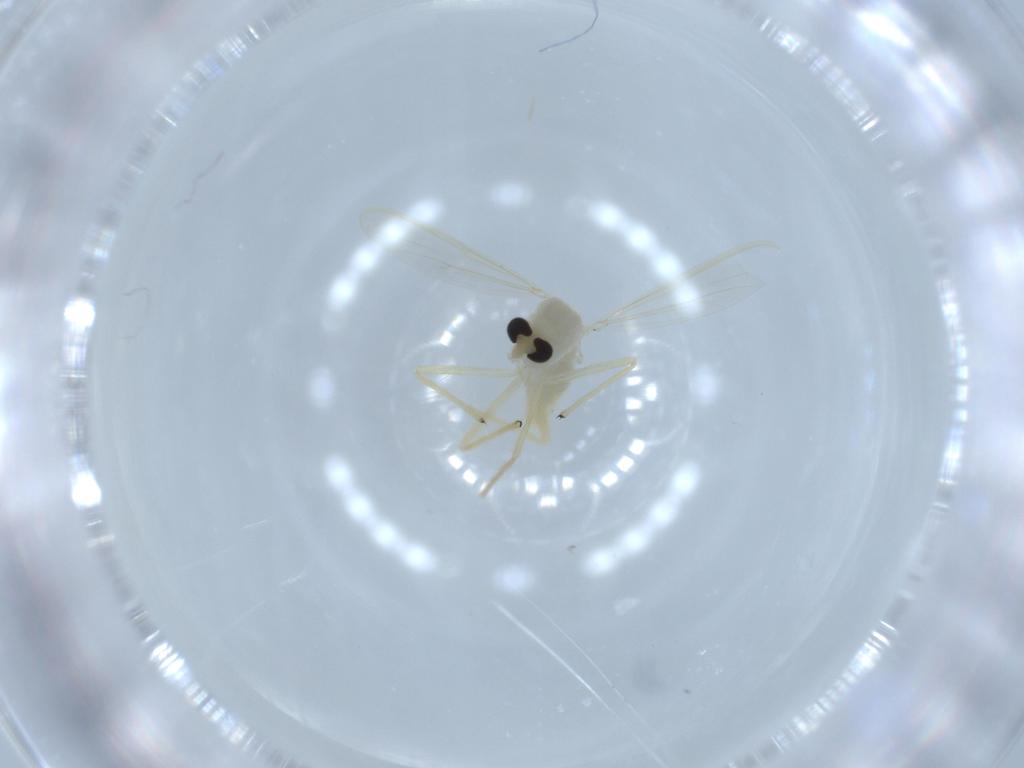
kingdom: Animalia
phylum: Arthropoda
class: Insecta
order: Diptera
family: Chironomidae
